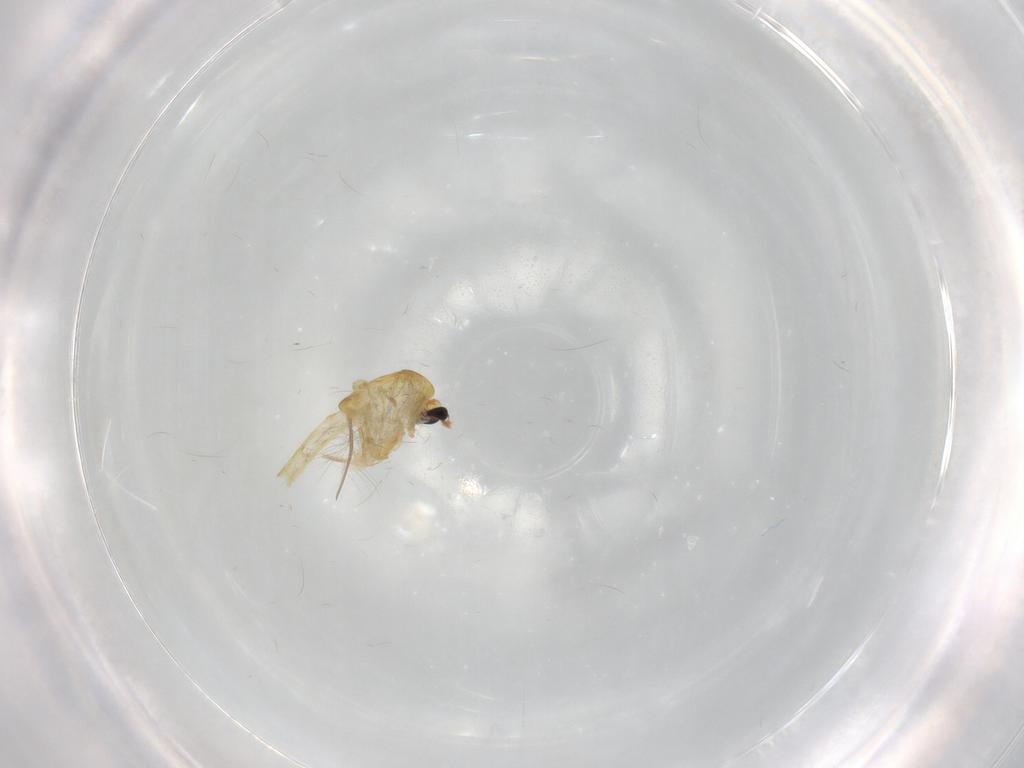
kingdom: Animalia
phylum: Arthropoda
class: Insecta
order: Diptera
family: Chironomidae
